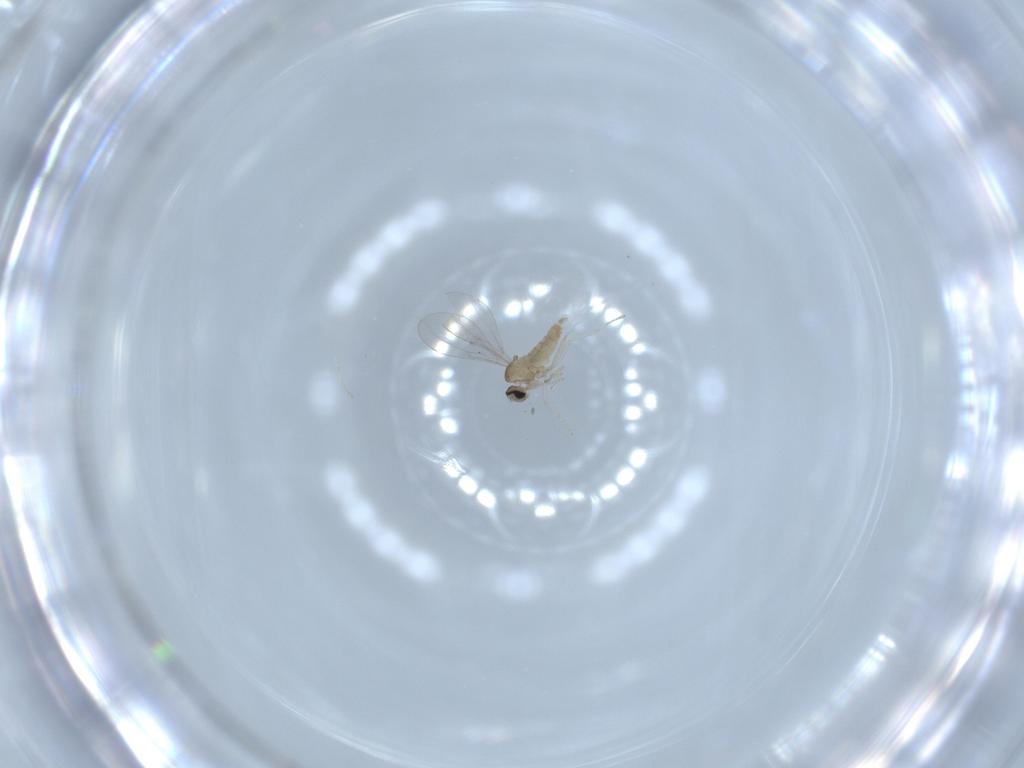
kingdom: Animalia
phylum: Arthropoda
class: Insecta
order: Diptera
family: Cecidomyiidae
